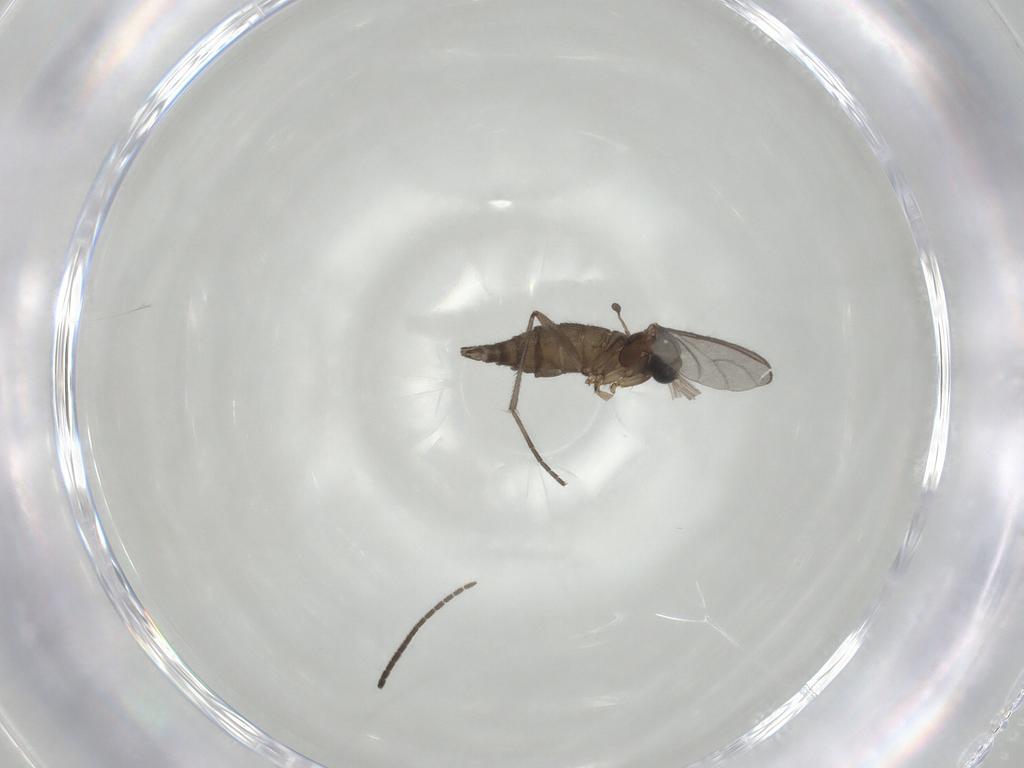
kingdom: Animalia
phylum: Arthropoda
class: Insecta
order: Diptera
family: Sciaridae
